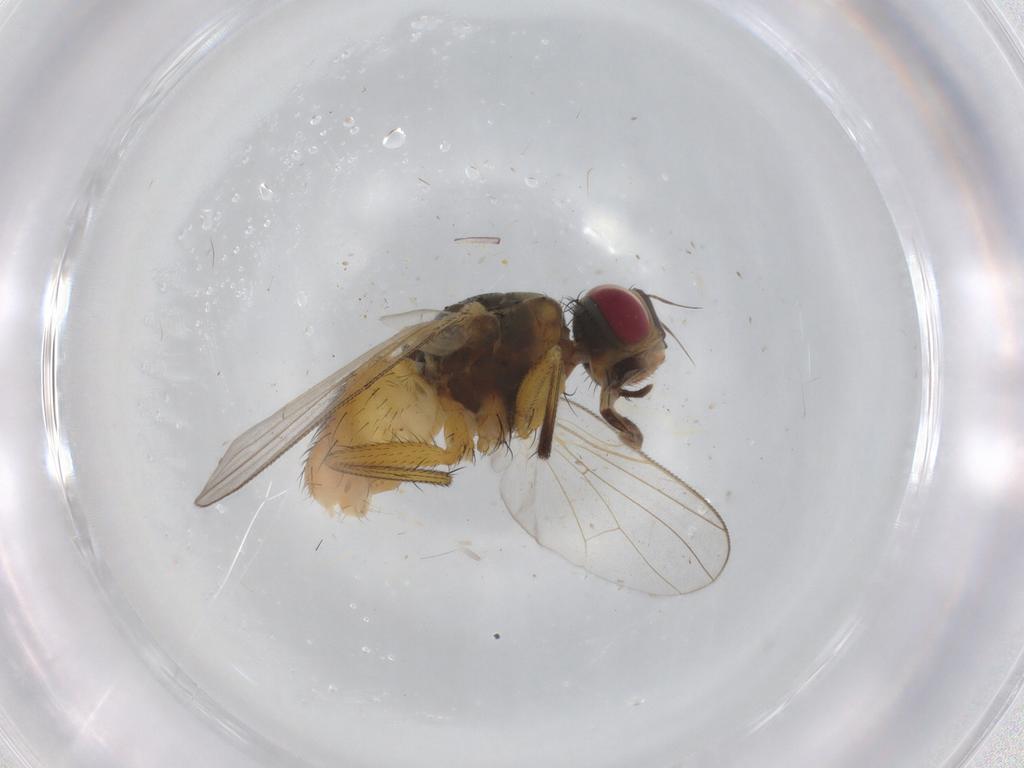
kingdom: Animalia
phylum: Arthropoda
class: Insecta
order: Diptera
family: Muscidae
